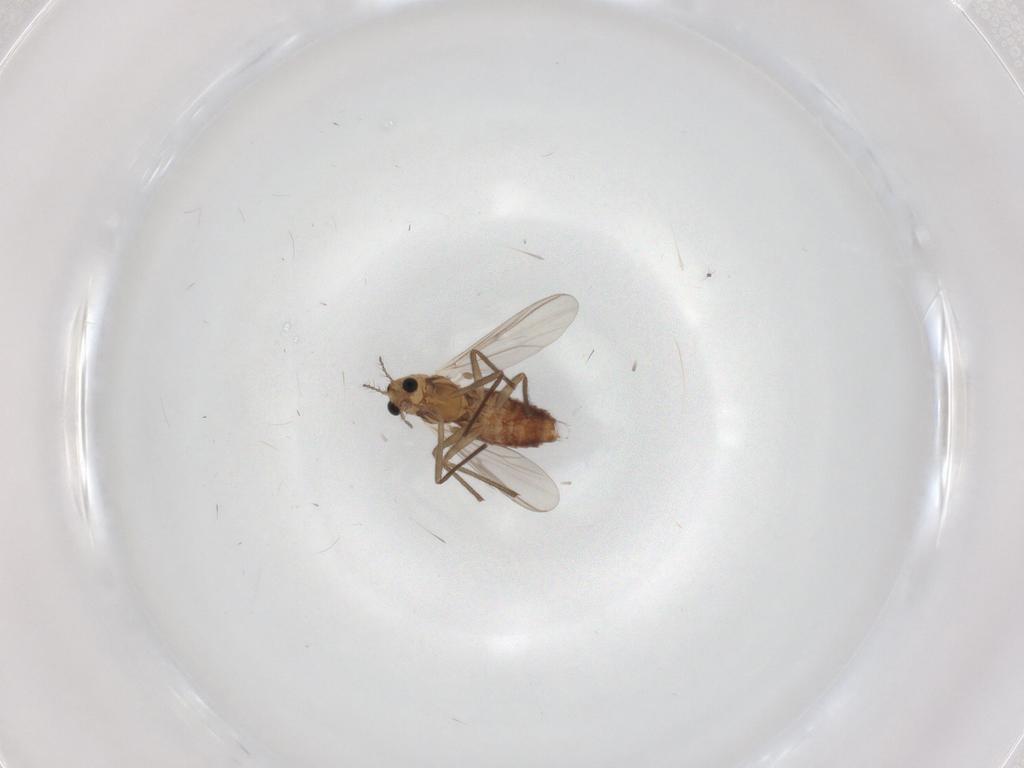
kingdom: Animalia
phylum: Arthropoda
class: Insecta
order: Diptera
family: Chironomidae
